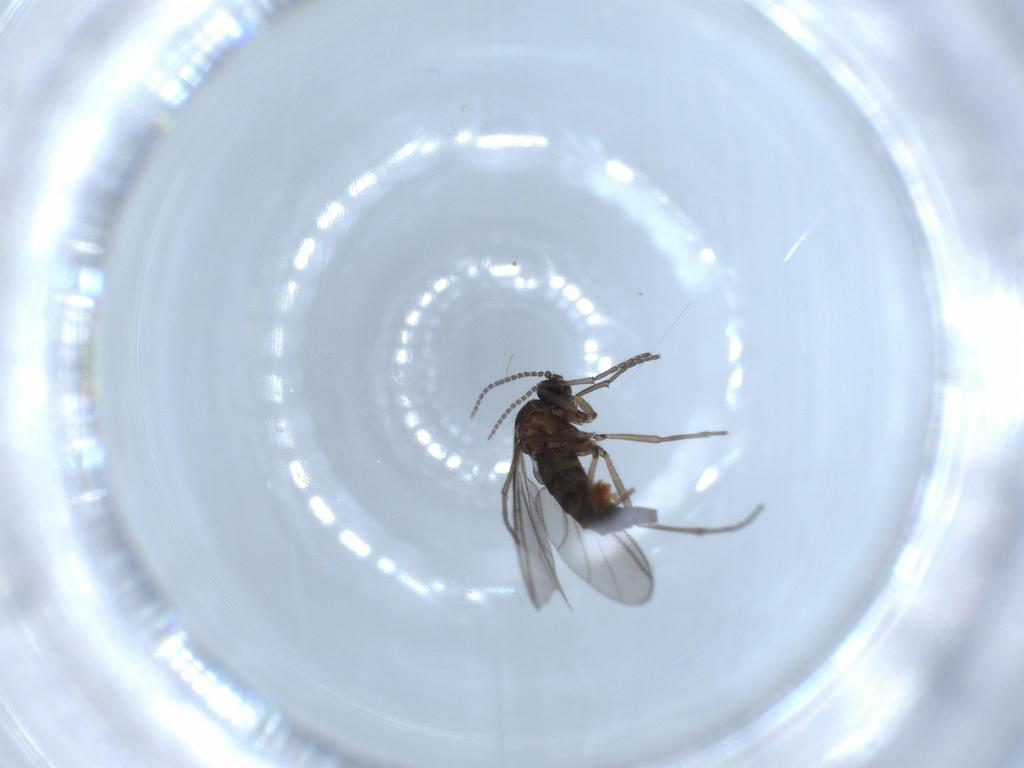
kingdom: Animalia
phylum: Arthropoda
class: Insecta
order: Diptera
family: Sciaridae
